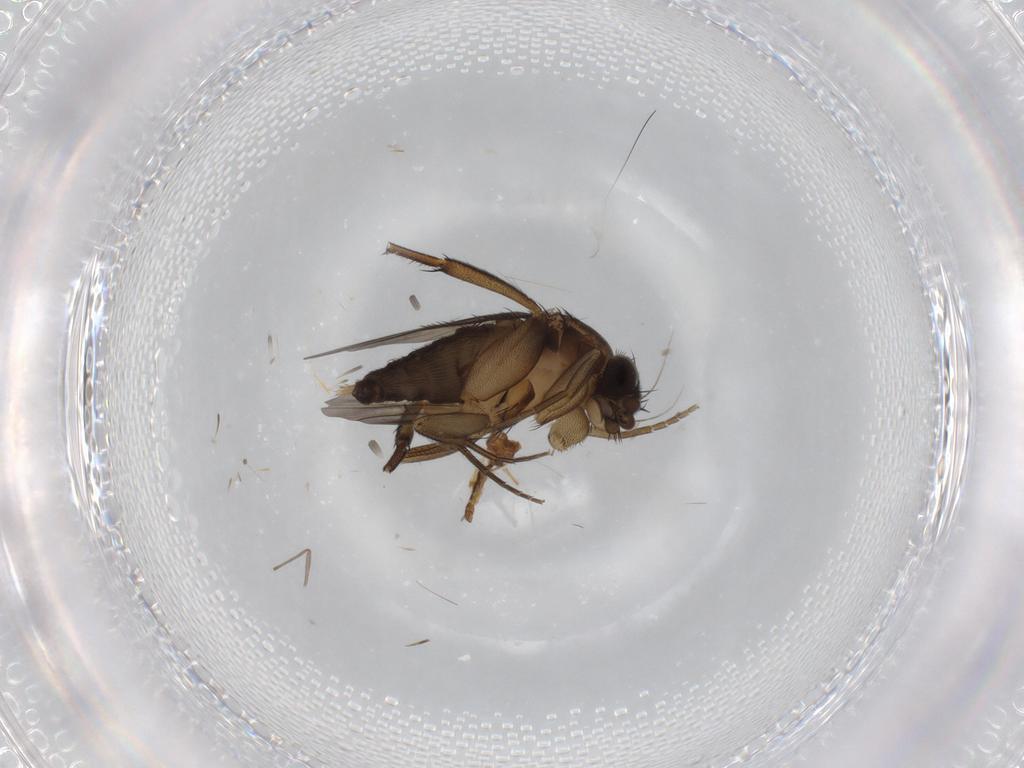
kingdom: Animalia
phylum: Arthropoda
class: Insecta
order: Diptera
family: Phoridae
